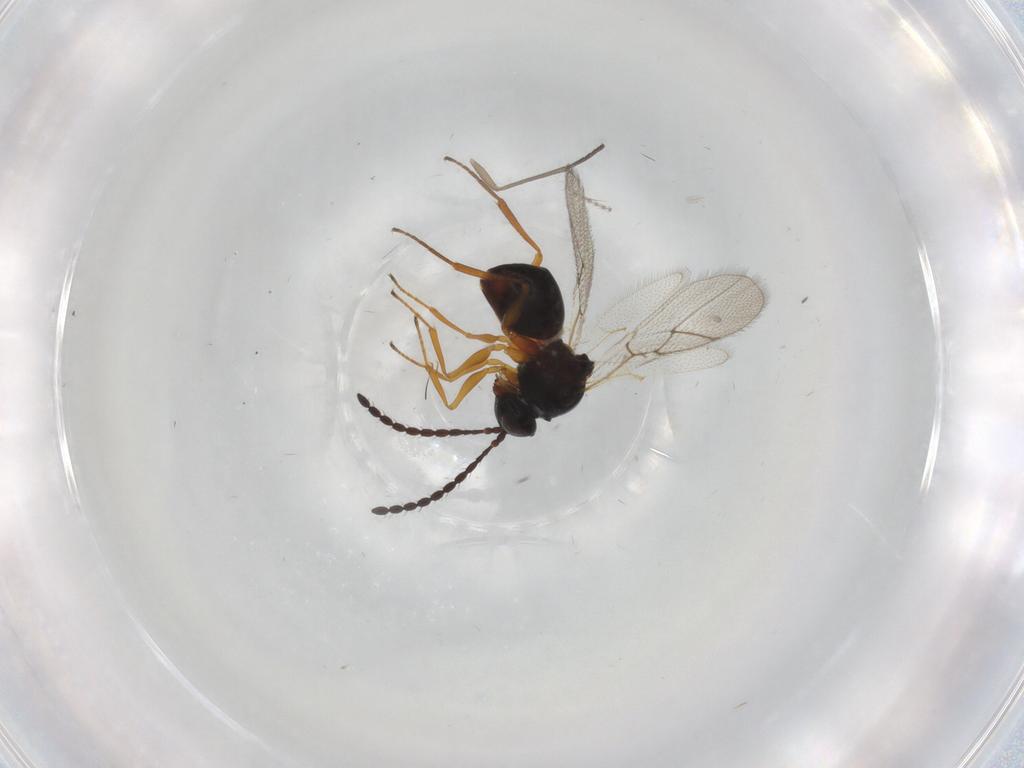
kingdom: Animalia
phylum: Arthropoda
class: Insecta
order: Hymenoptera
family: Figitidae
